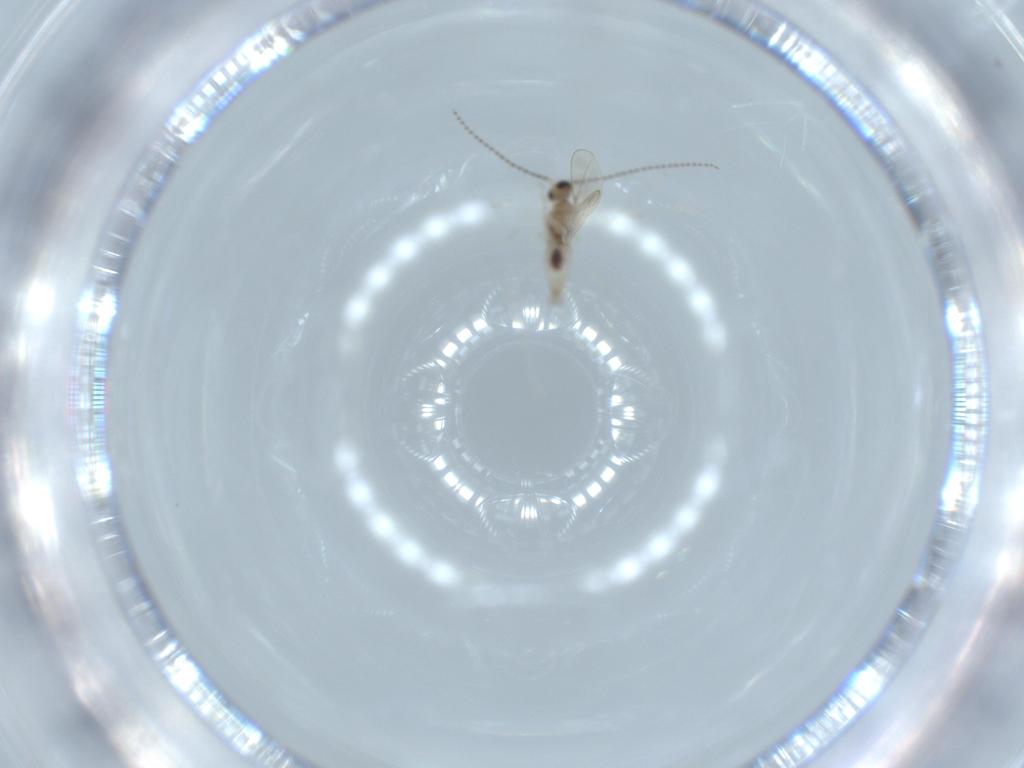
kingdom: Animalia
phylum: Arthropoda
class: Insecta
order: Diptera
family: Cecidomyiidae
